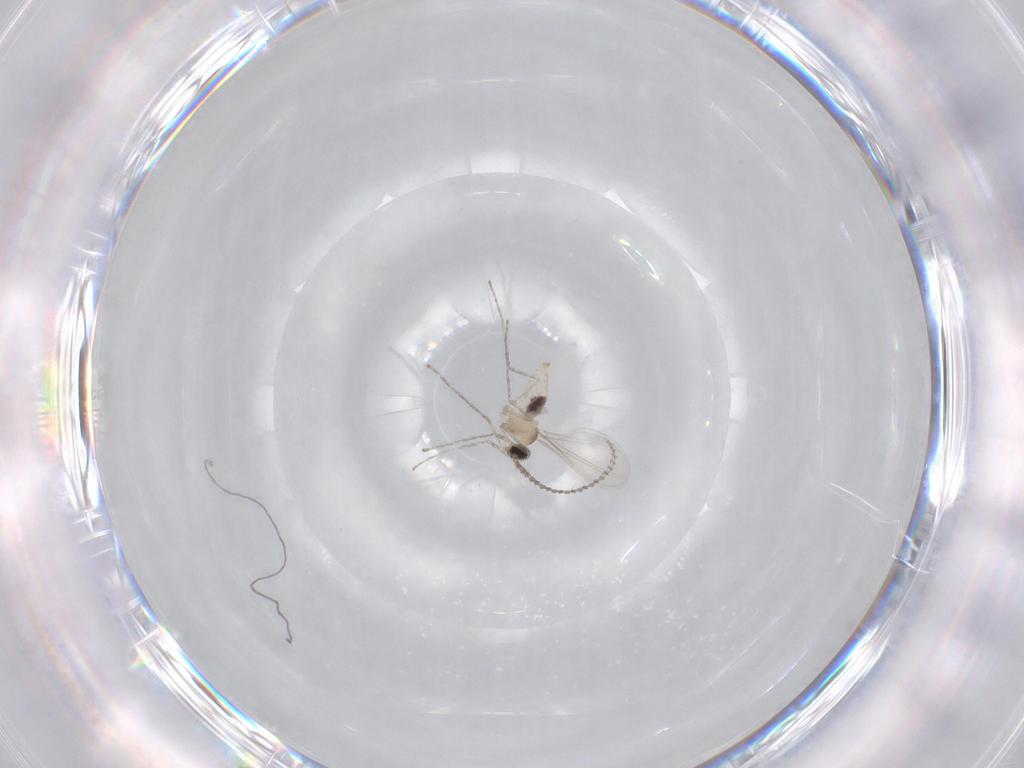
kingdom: Animalia
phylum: Arthropoda
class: Insecta
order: Diptera
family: Cecidomyiidae
